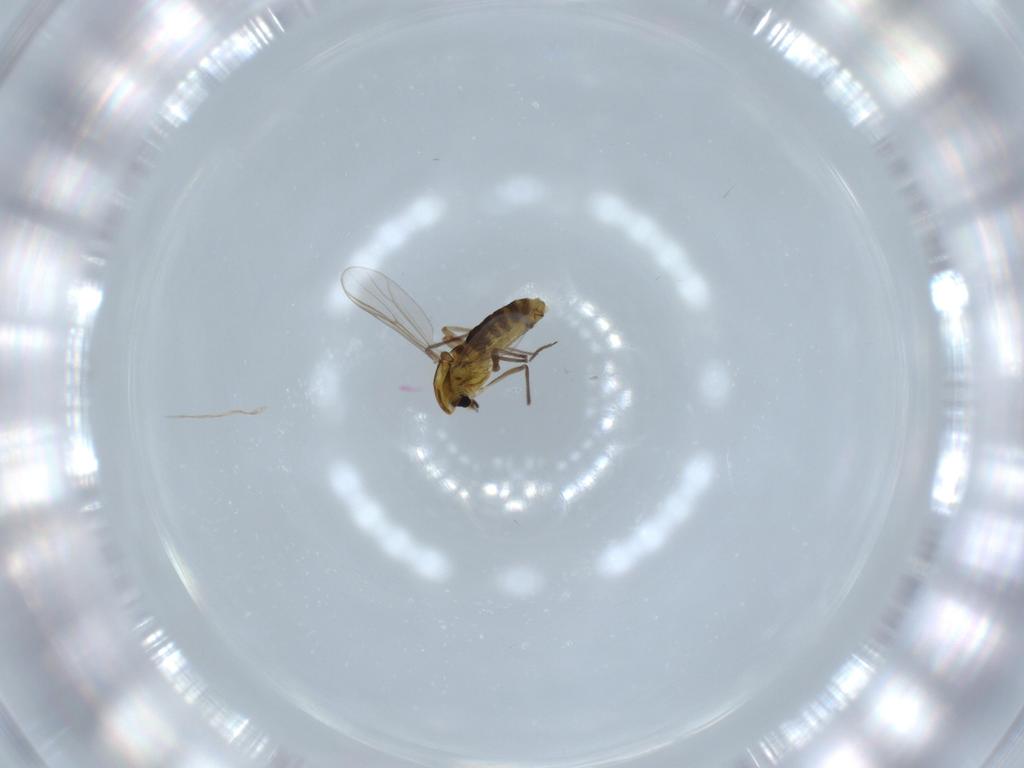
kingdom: Animalia
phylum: Arthropoda
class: Insecta
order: Diptera
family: Chironomidae
